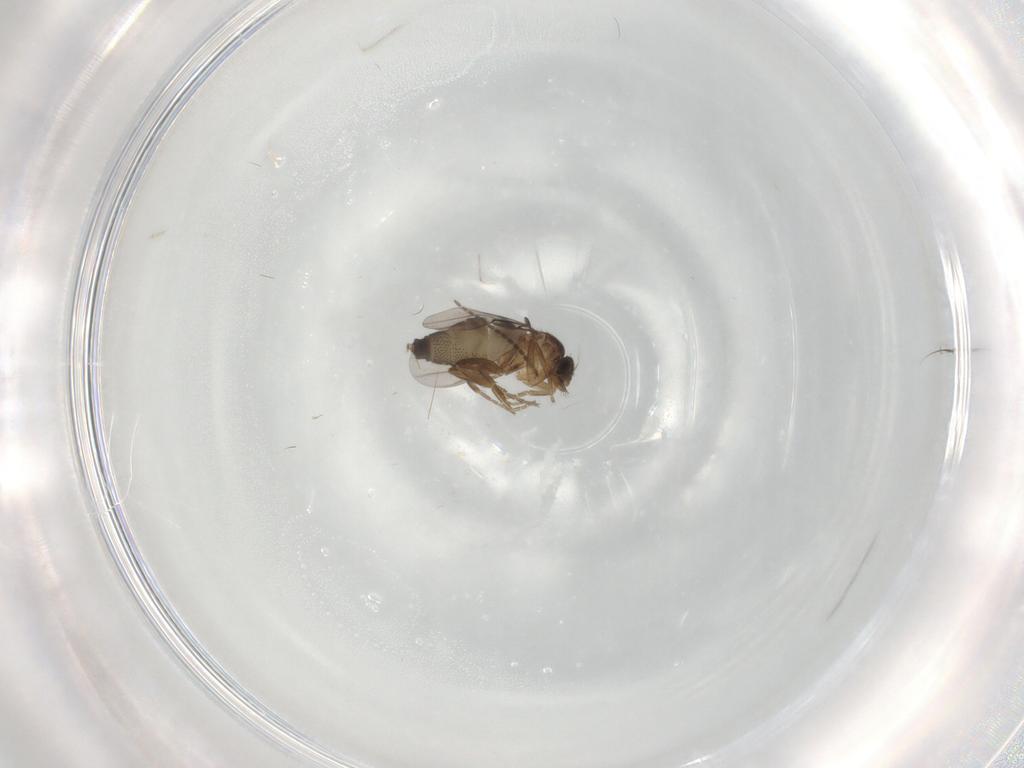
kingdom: Animalia
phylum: Arthropoda
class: Insecta
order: Diptera
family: Phoridae
